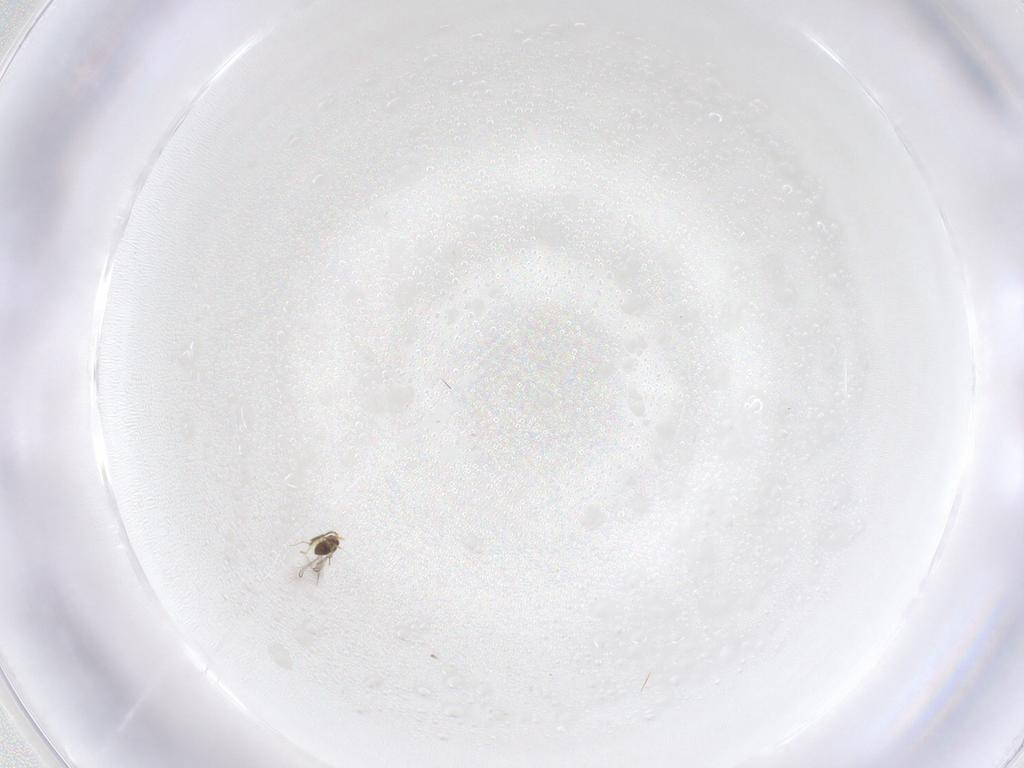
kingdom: Animalia
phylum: Arthropoda
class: Insecta
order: Hymenoptera
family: Mymaridae
